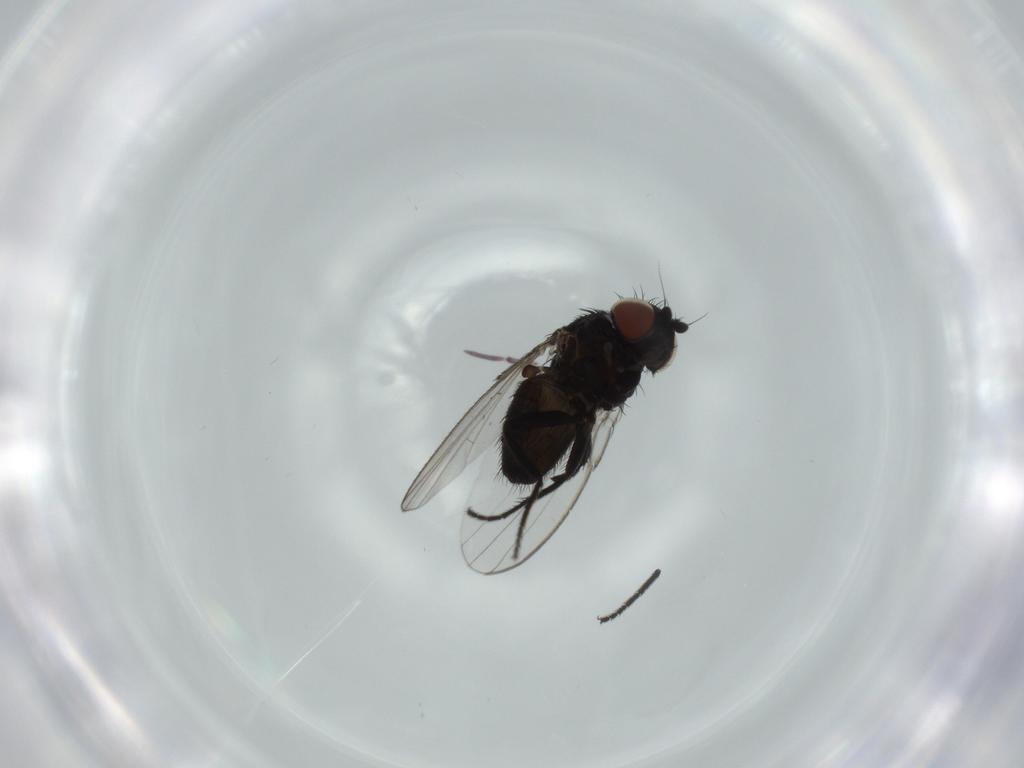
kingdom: Animalia
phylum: Arthropoda
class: Insecta
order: Diptera
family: Milichiidae
